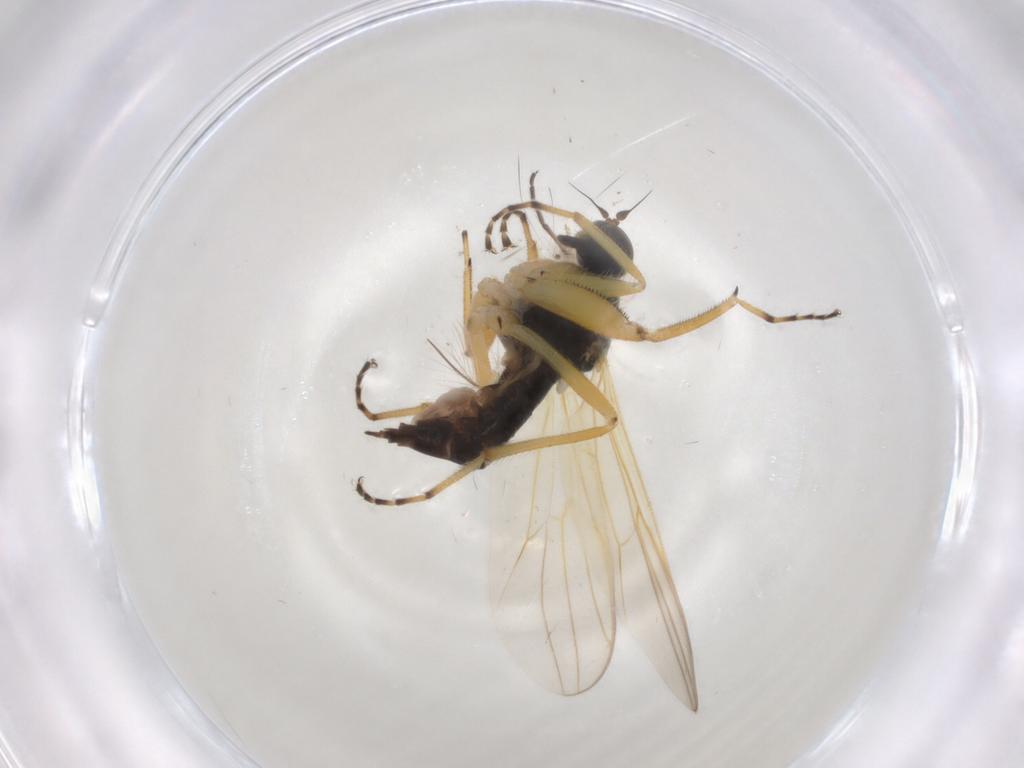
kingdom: Animalia
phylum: Arthropoda
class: Insecta
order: Diptera
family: Hybotidae
